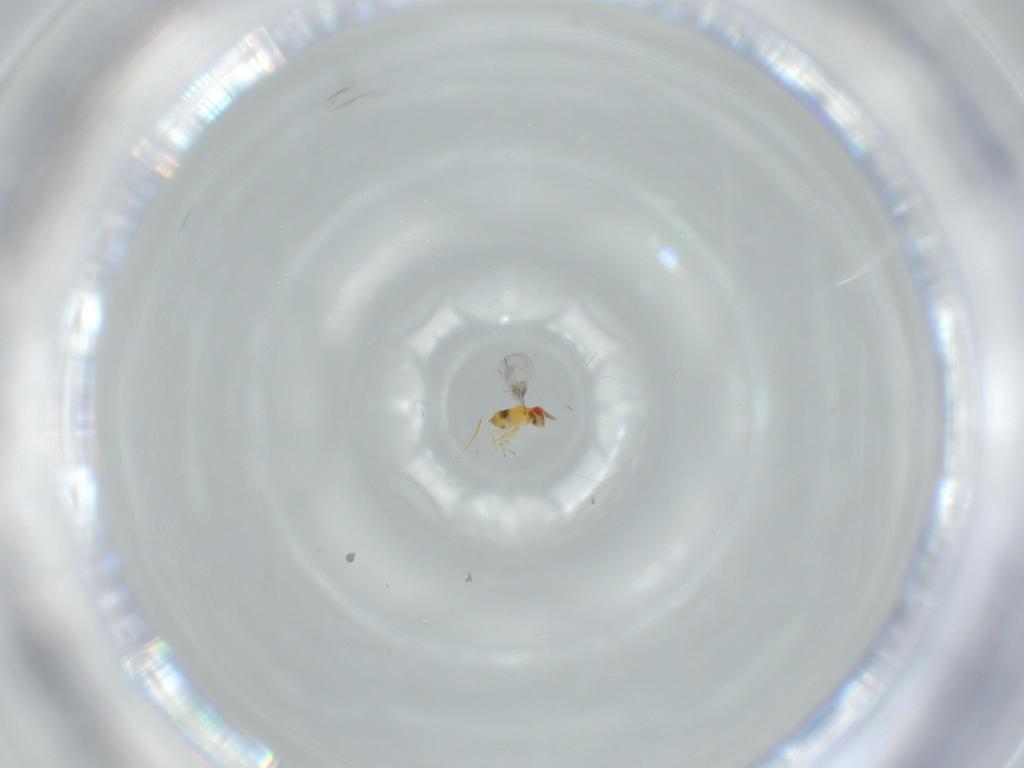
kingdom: Animalia
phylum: Arthropoda
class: Insecta
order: Hymenoptera
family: Trichogrammatidae
